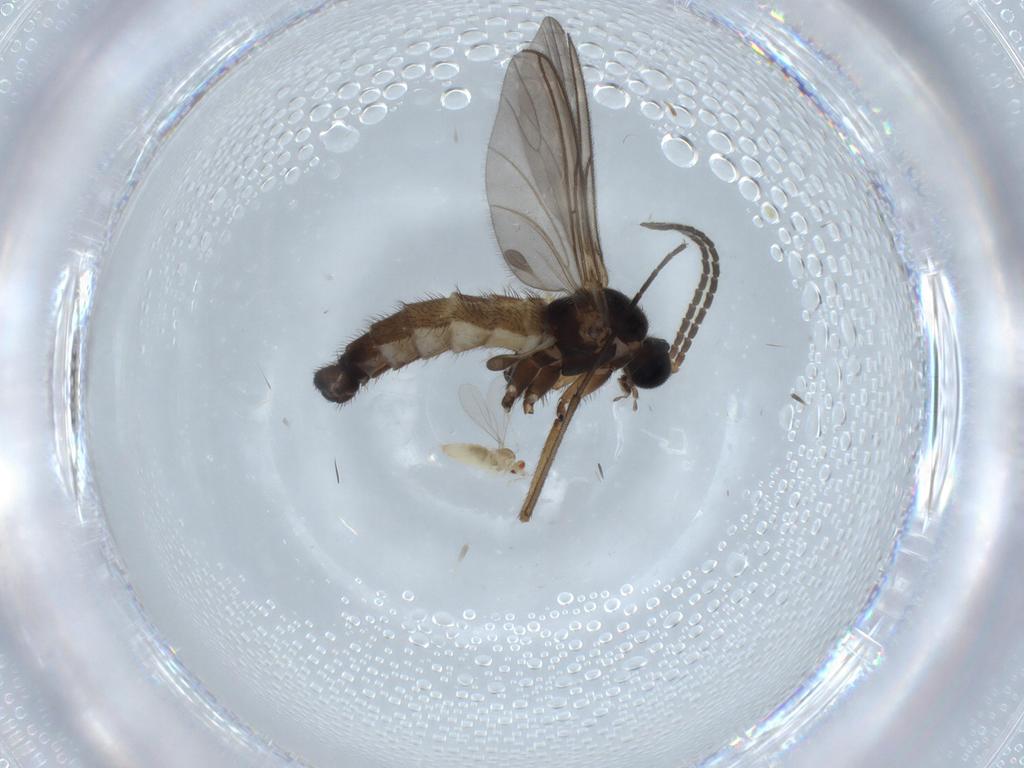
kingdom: Animalia
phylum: Arthropoda
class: Insecta
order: Diptera
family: Sciaridae
